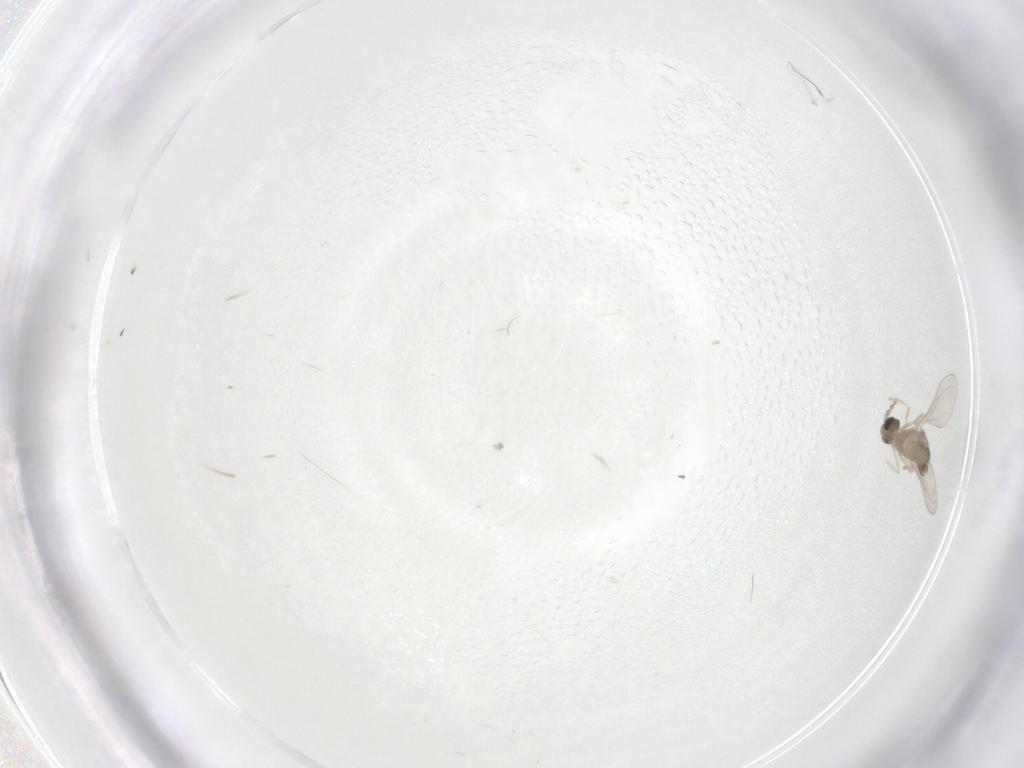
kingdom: Animalia
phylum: Arthropoda
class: Insecta
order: Diptera
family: Cecidomyiidae
